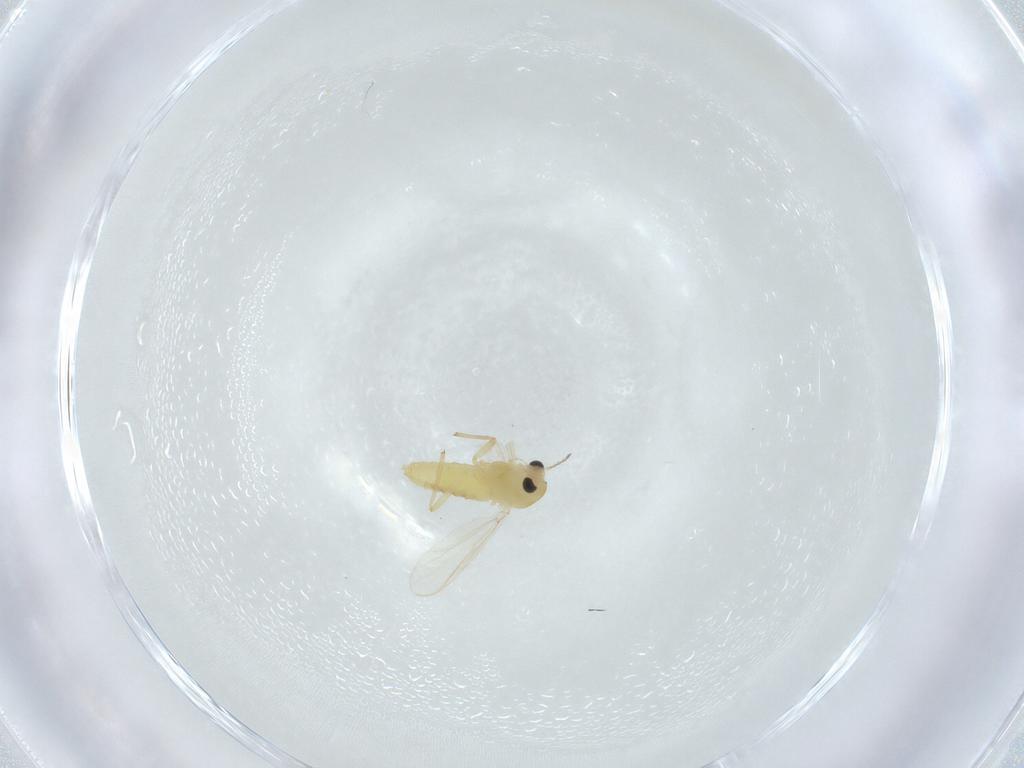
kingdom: Animalia
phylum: Arthropoda
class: Insecta
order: Diptera
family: Chironomidae
